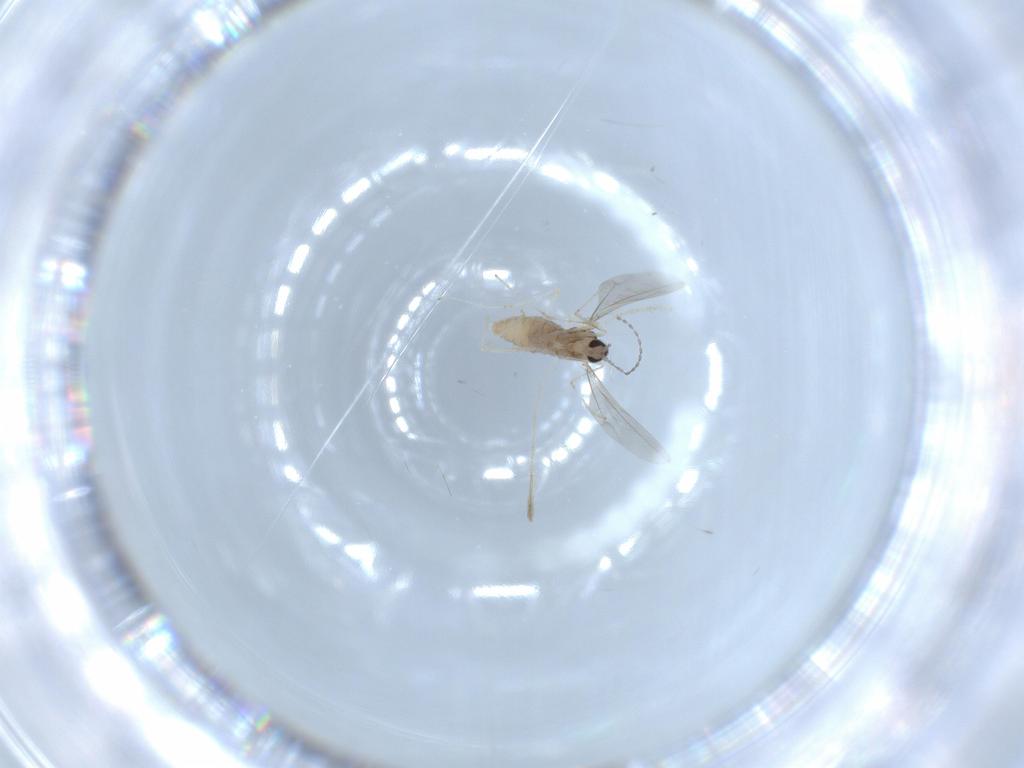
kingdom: Animalia
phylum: Arthropoda
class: Insecta
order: Diptera
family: Cecidomyiidae
